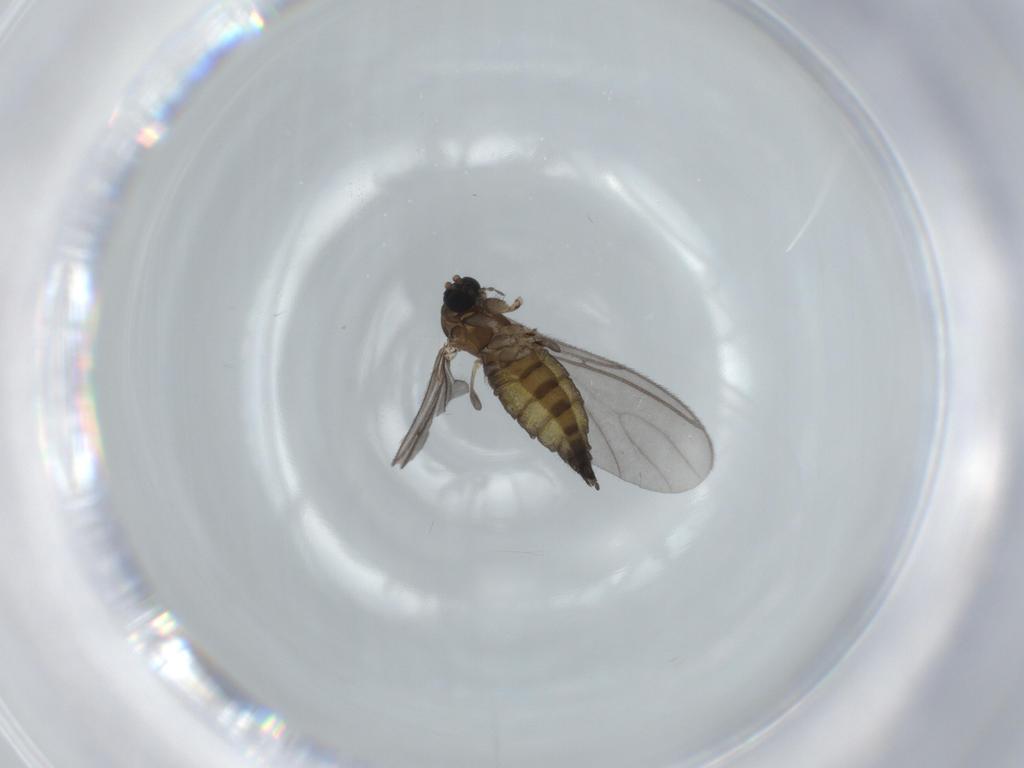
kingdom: Animalia
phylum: Arthropoda
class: Insecta
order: Diptera
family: Sciaridae
